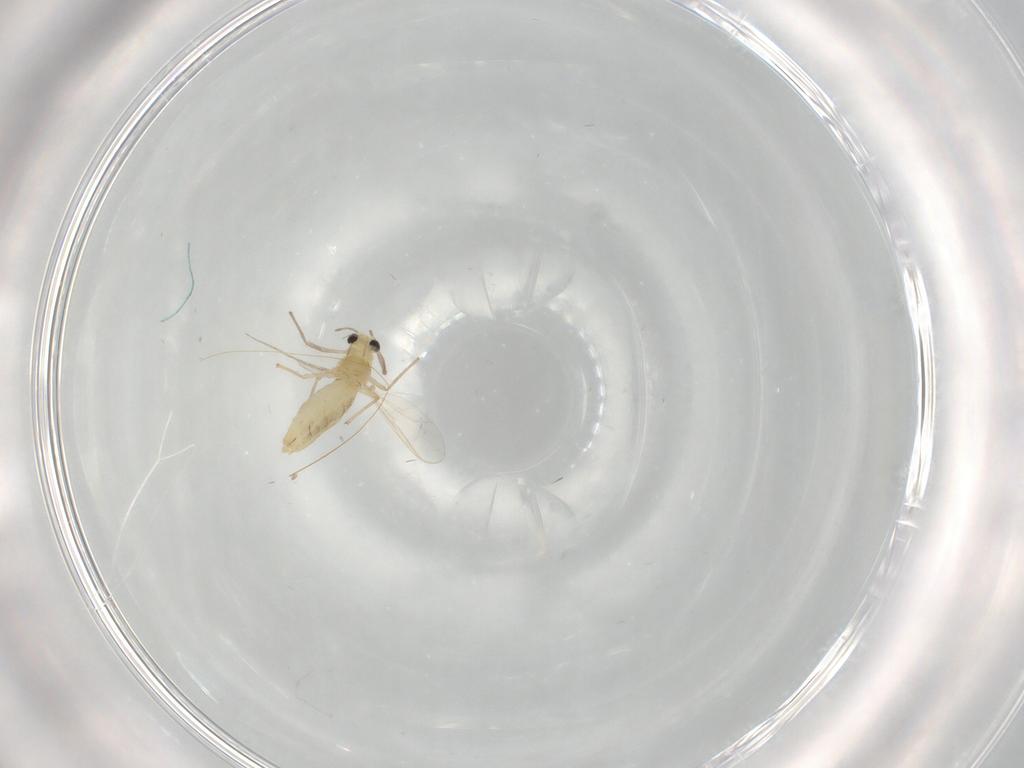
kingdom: Animalia
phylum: Arthropoda
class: Insecta
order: Diptera
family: Chironomidae
